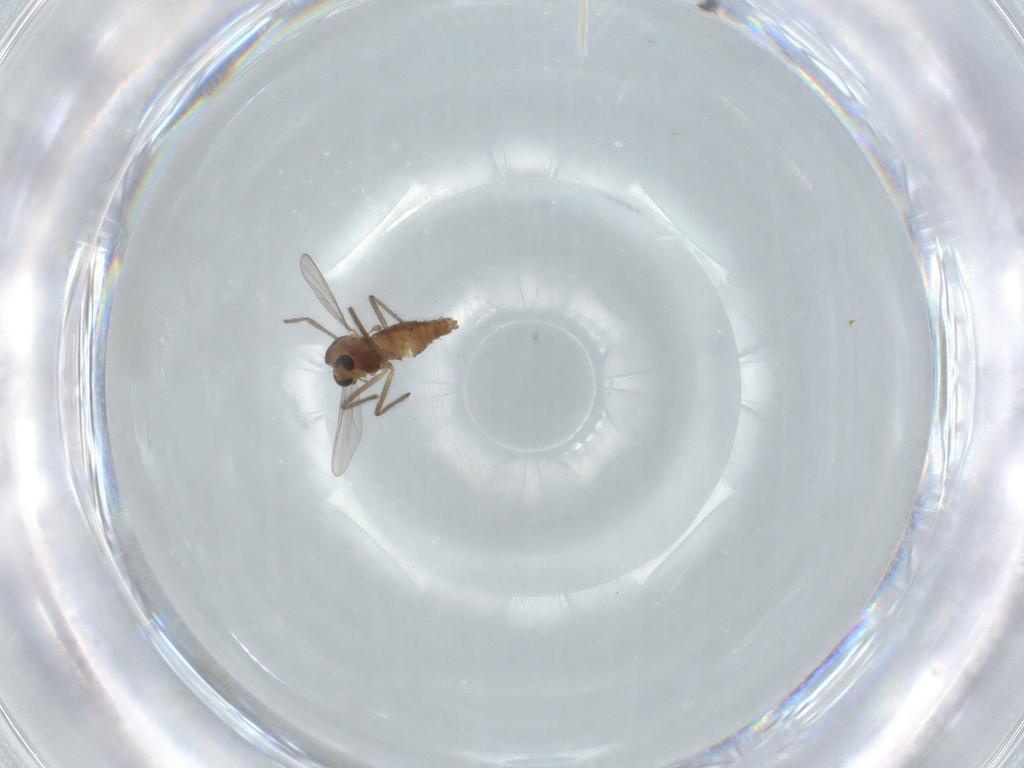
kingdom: Animalia
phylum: Arthropoda
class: Insecta
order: Diptera
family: Chironomidae
